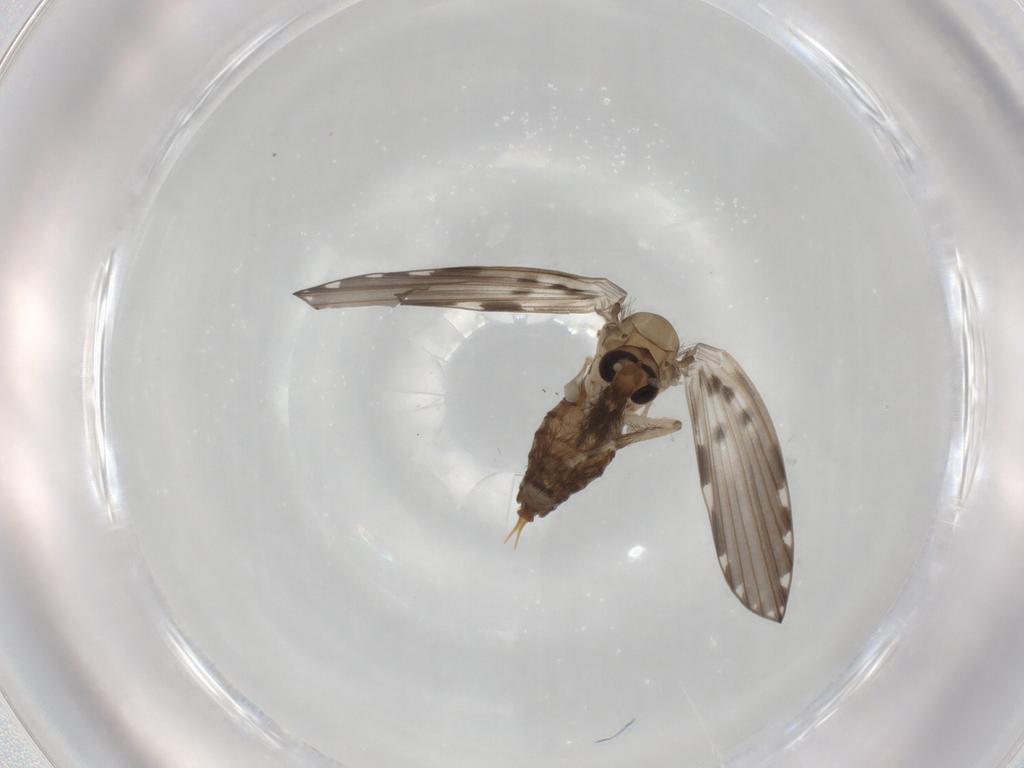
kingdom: Animalia
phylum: Arthropoda
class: Insecta
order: Diptera
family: Psychodidae
